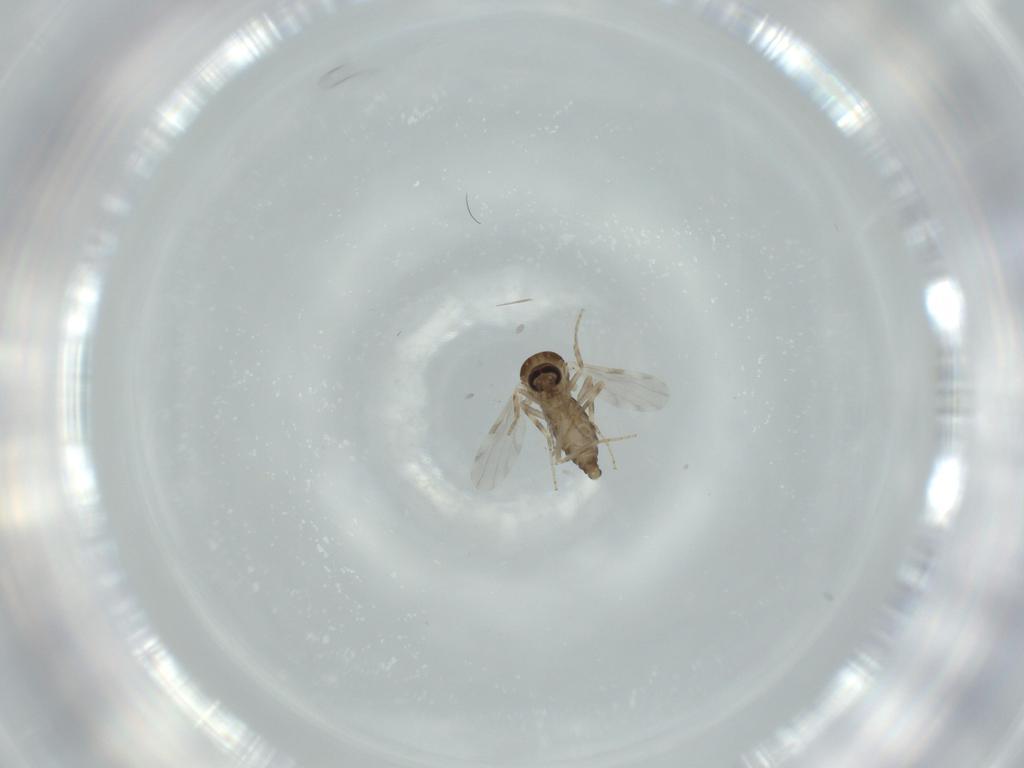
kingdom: Animalia
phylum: Arthropoda
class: Insecta
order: Diptera
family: Ceratopogonidae
